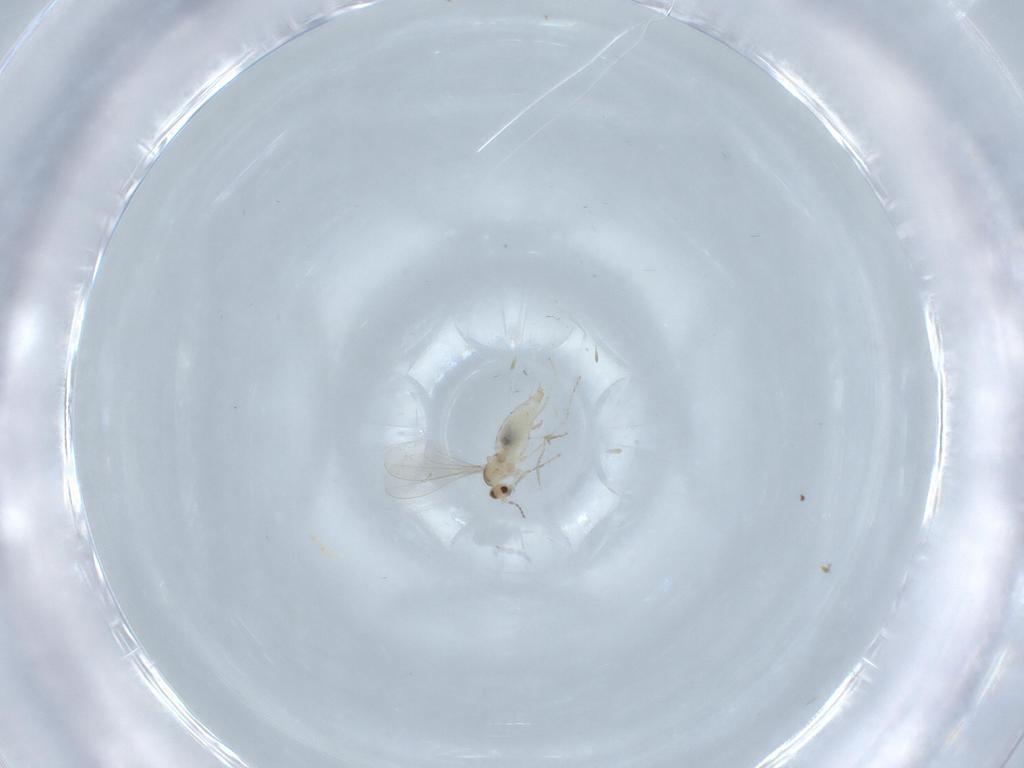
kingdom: Animalia
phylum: Arthropoda
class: Insecta
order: Diptera
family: Cecidomyiidae
